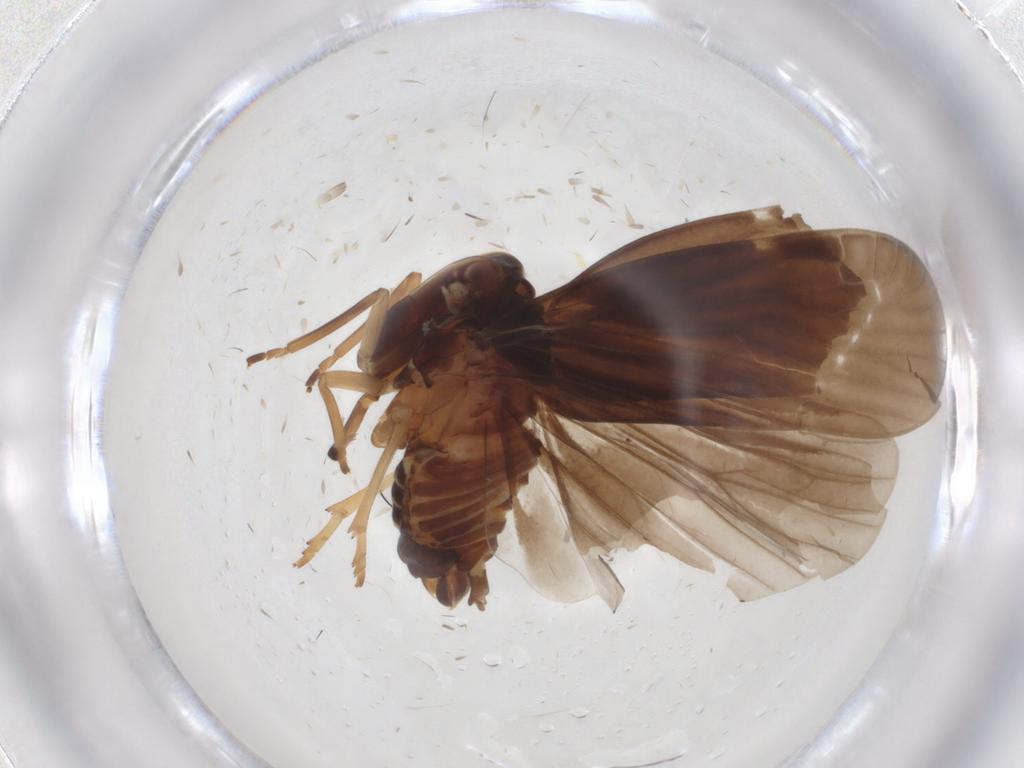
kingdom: Animalia
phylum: Arthropoda
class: Insecta
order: Hemiptera
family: Derbidae
